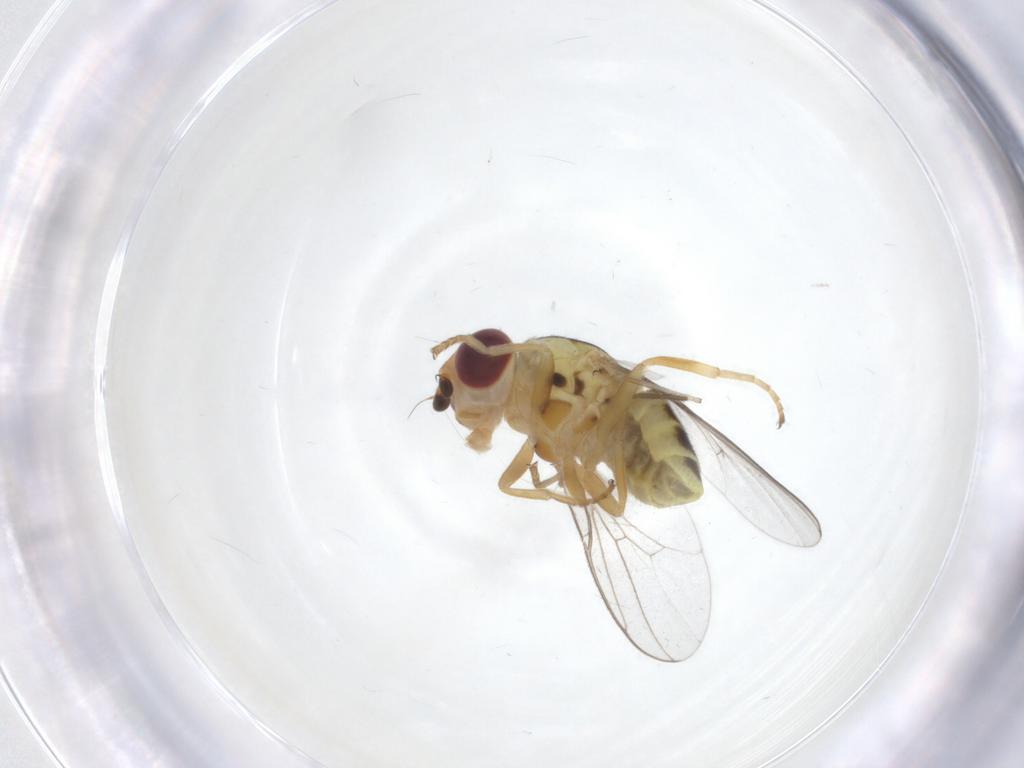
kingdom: Animalia
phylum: Arthropoda
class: Insecta
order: Diptera
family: Chloropidae
